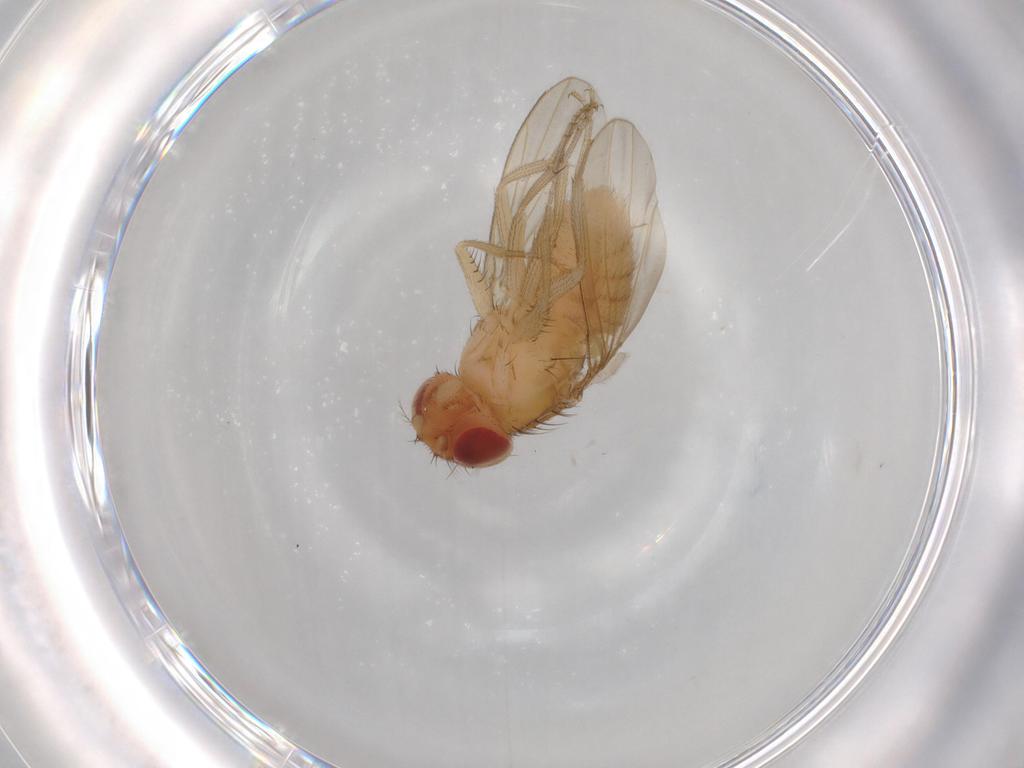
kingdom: Animalia
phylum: Arthropoda
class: Insecta
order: Diptera
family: Drosophilidae
